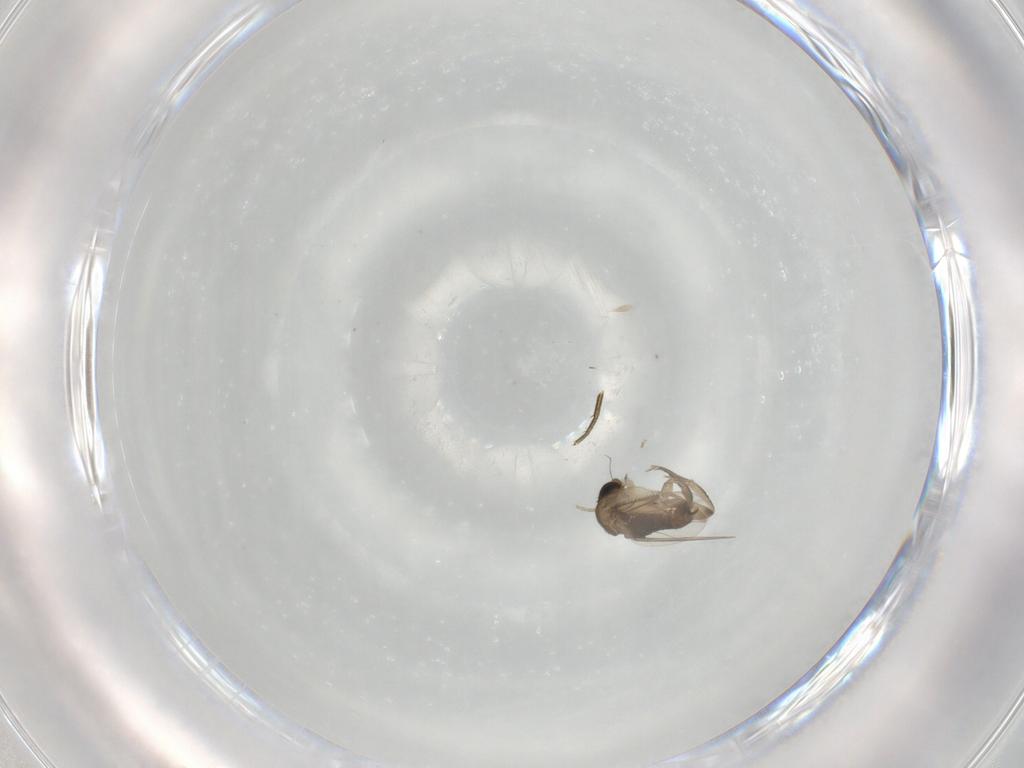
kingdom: Animalia
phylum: Arthropoda
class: Insecta
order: Diptera
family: Phoridae
